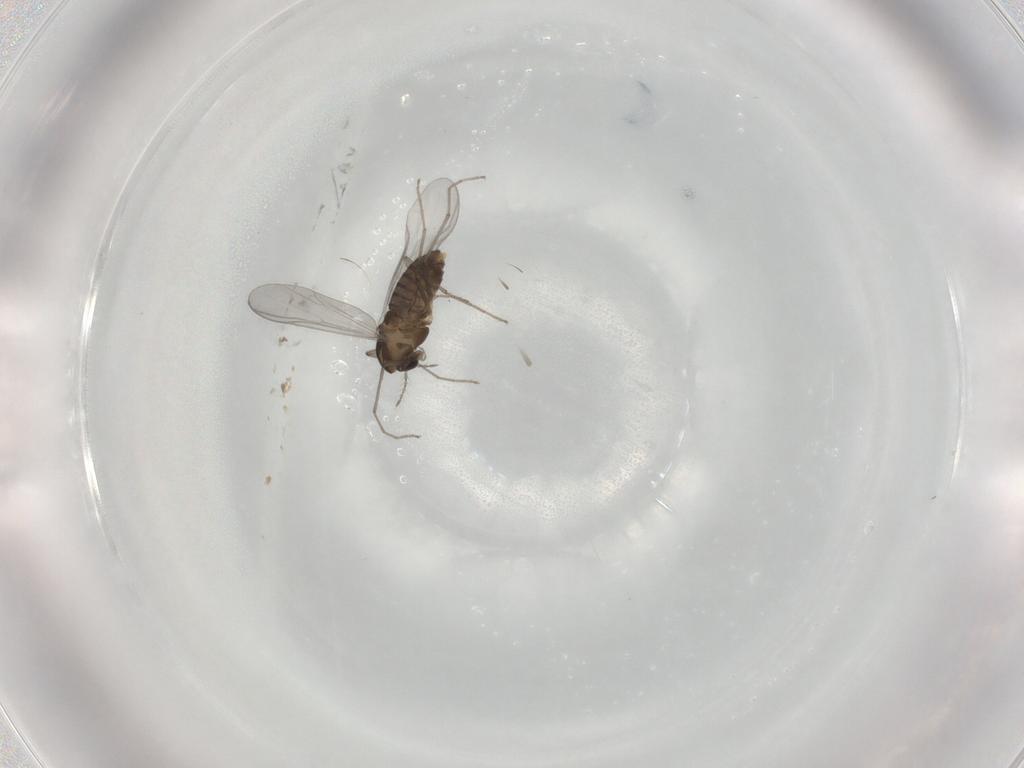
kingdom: Animalia
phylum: Arthropoda
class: Insecta
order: Diptera
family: Chironomidae
